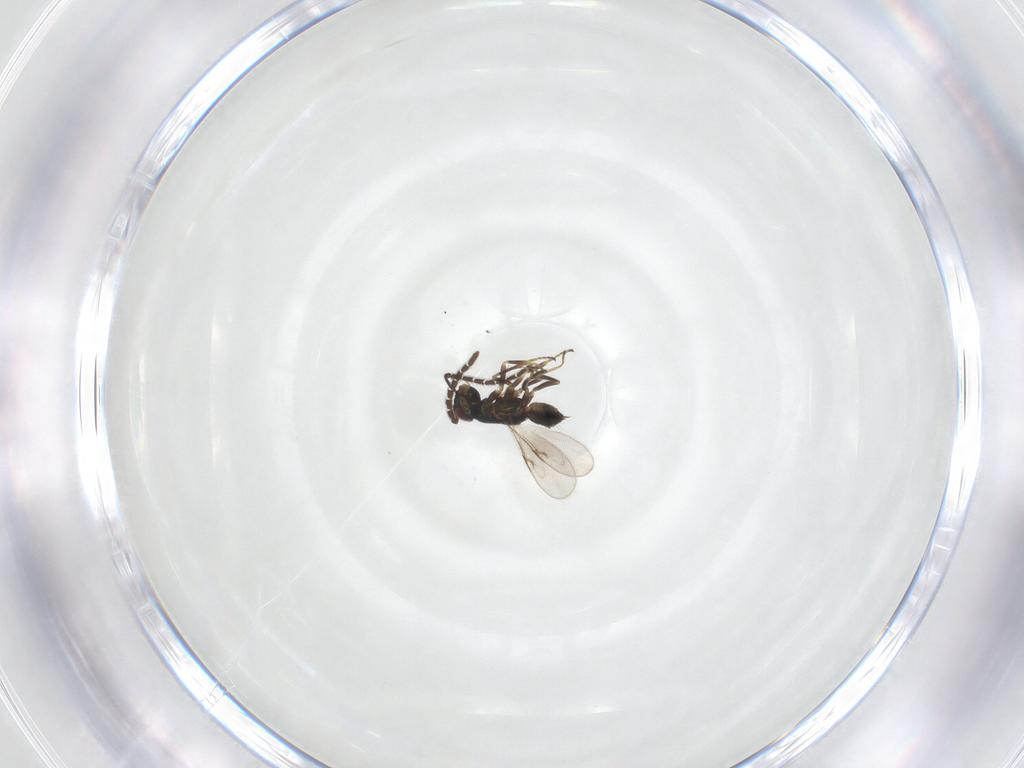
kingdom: Animalia
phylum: Arthropoda
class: Insecta
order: Hymenoptera
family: Encyrtidae
